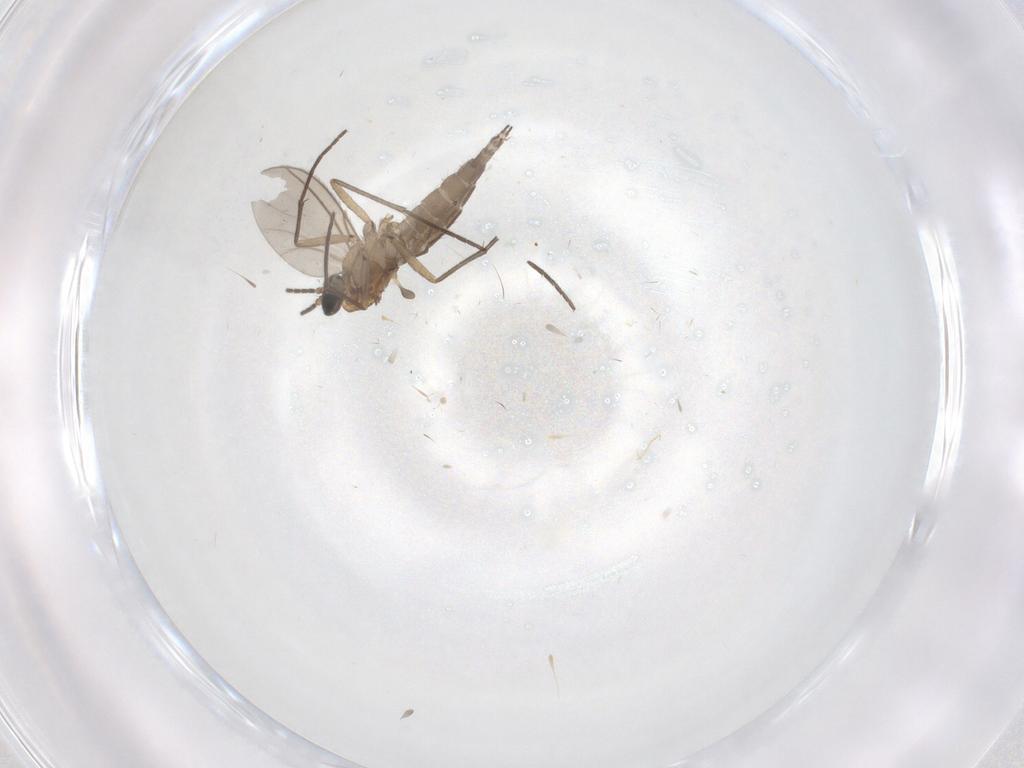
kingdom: Animalia
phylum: Arthropoda
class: Insecta
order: Diptera
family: Sciaridae
